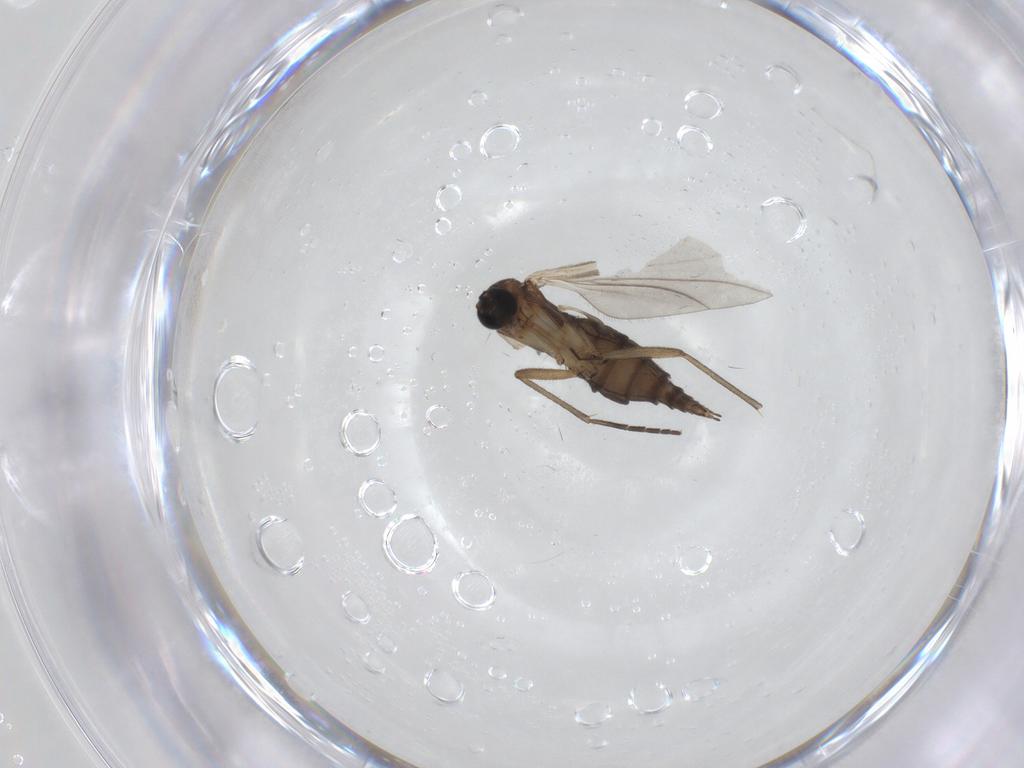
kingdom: Animalia
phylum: Arthropoda
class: Insecta
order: Diptera
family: Sciaridae
